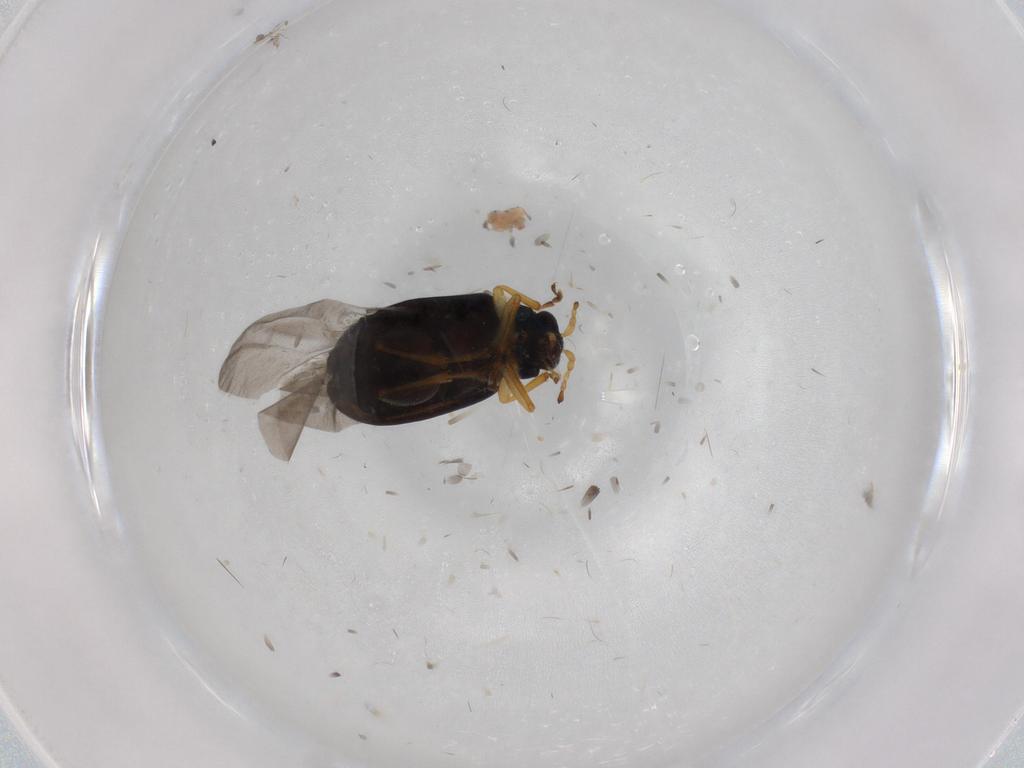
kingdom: Animalia
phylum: Arthropoda
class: Insecta
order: Coleoptera
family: Chrysomelidae
